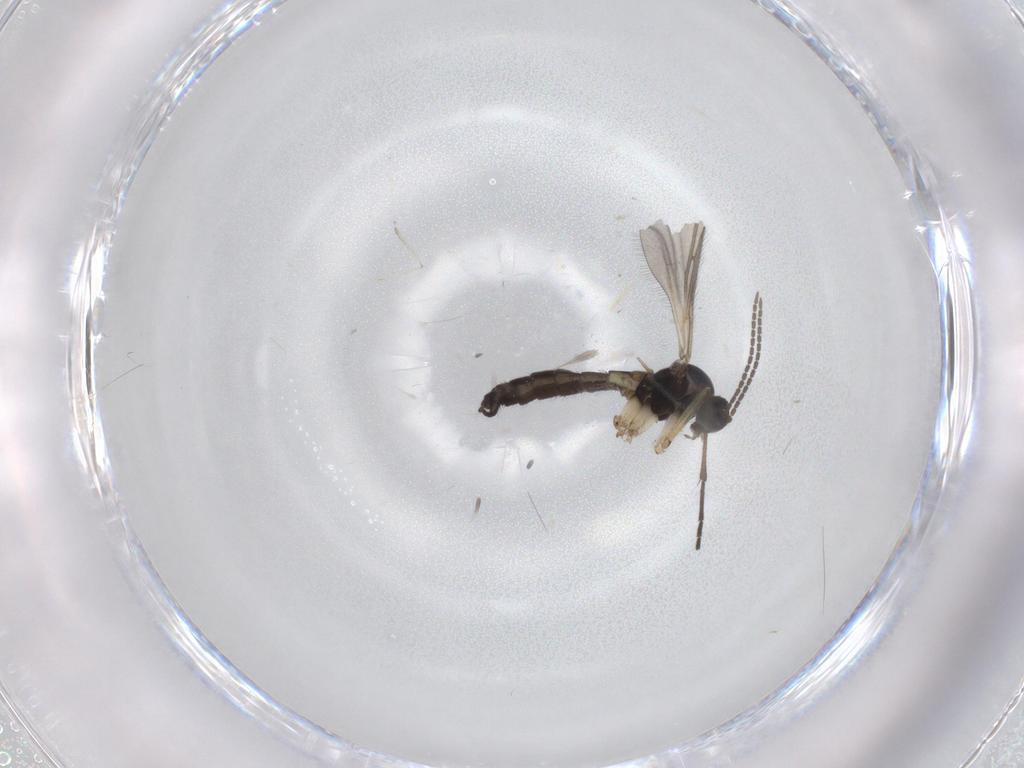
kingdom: Animalia
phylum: Arthropoda
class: Insecta
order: Diptera
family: Sciaridae
